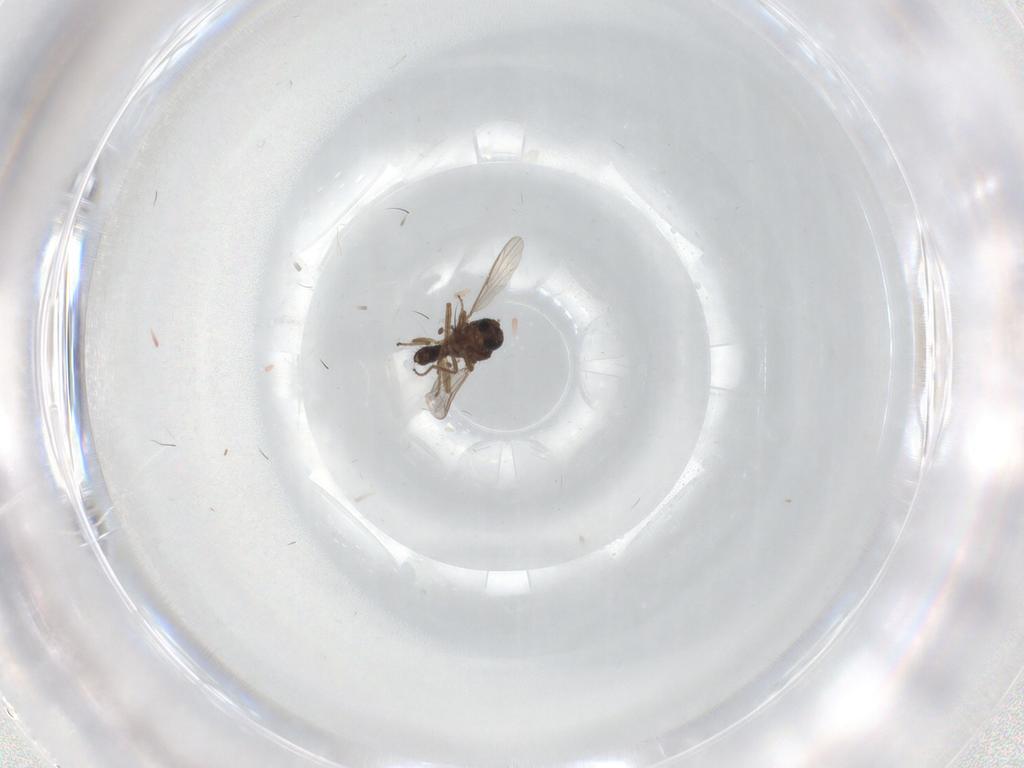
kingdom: Animalia
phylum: Arthropoda
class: Insecta
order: Diptera
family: Ceratopogonidae
